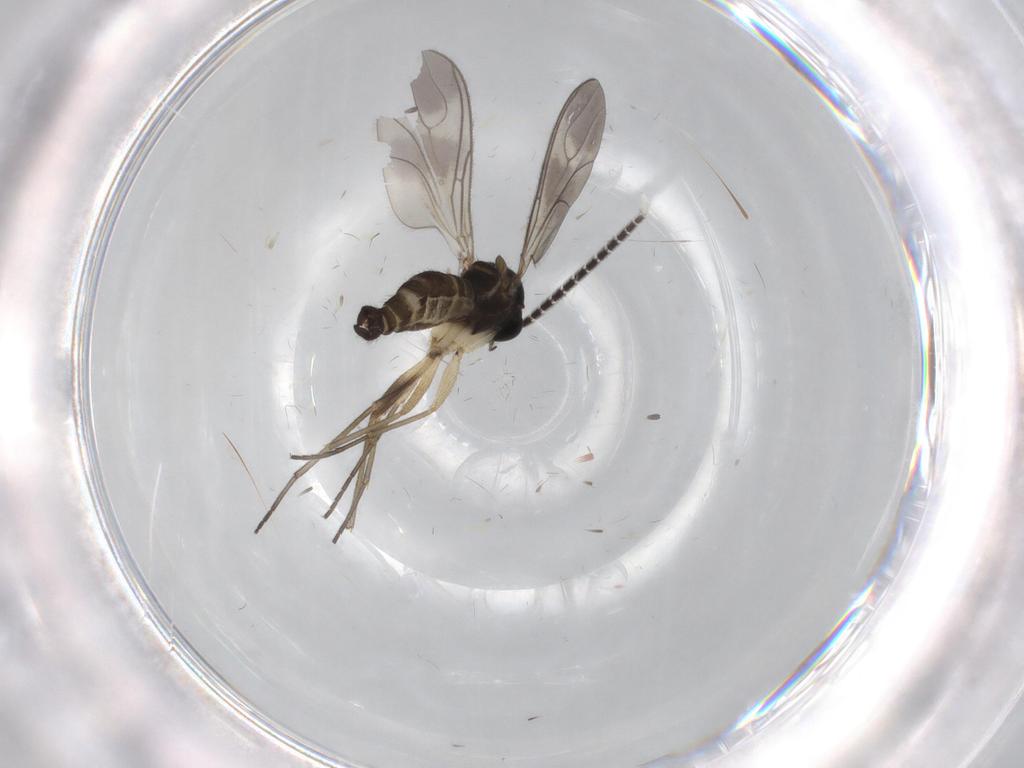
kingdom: Animalia
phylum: Arthropoda
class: Insecta
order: Diptera
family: Sciaridae
